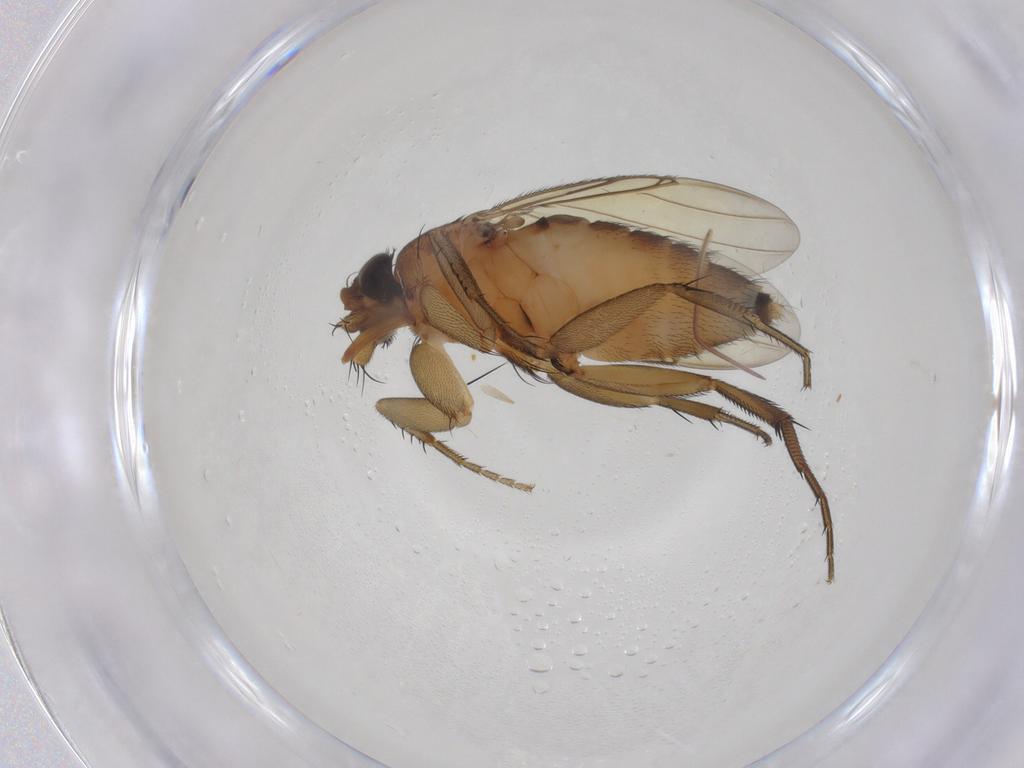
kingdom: Animalia
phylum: Arthropoda
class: Insecta
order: Diptera
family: Phoridae
